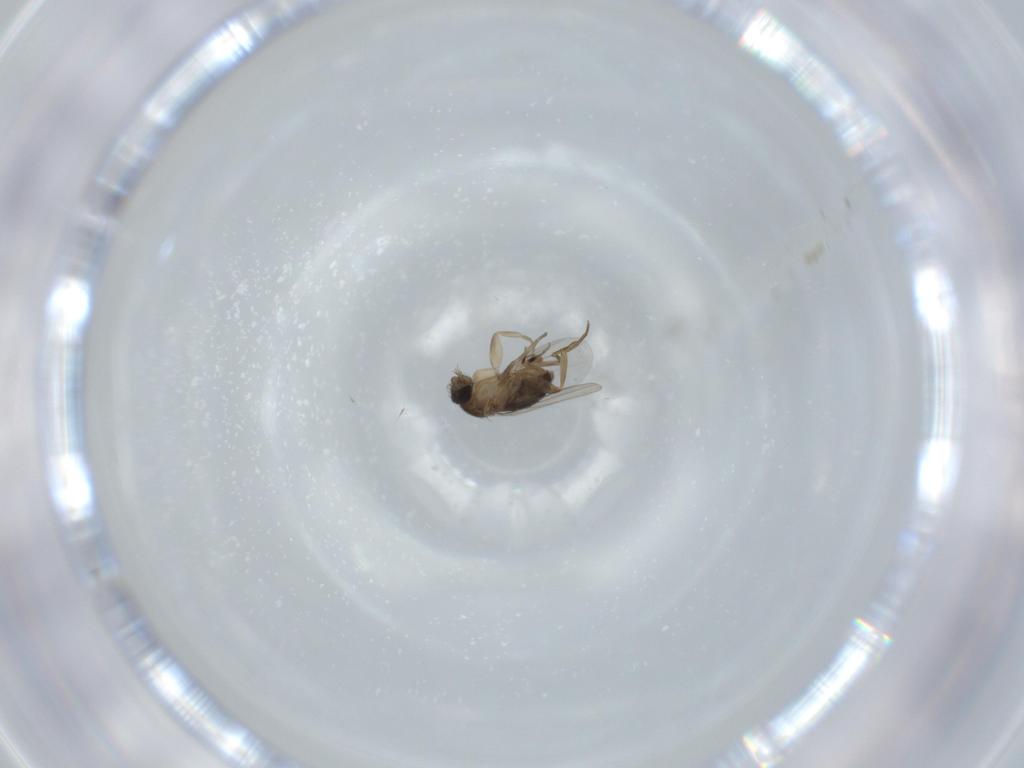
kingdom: Animalia
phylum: Arthropoda
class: Insecta
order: Diptera
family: Phoridae
